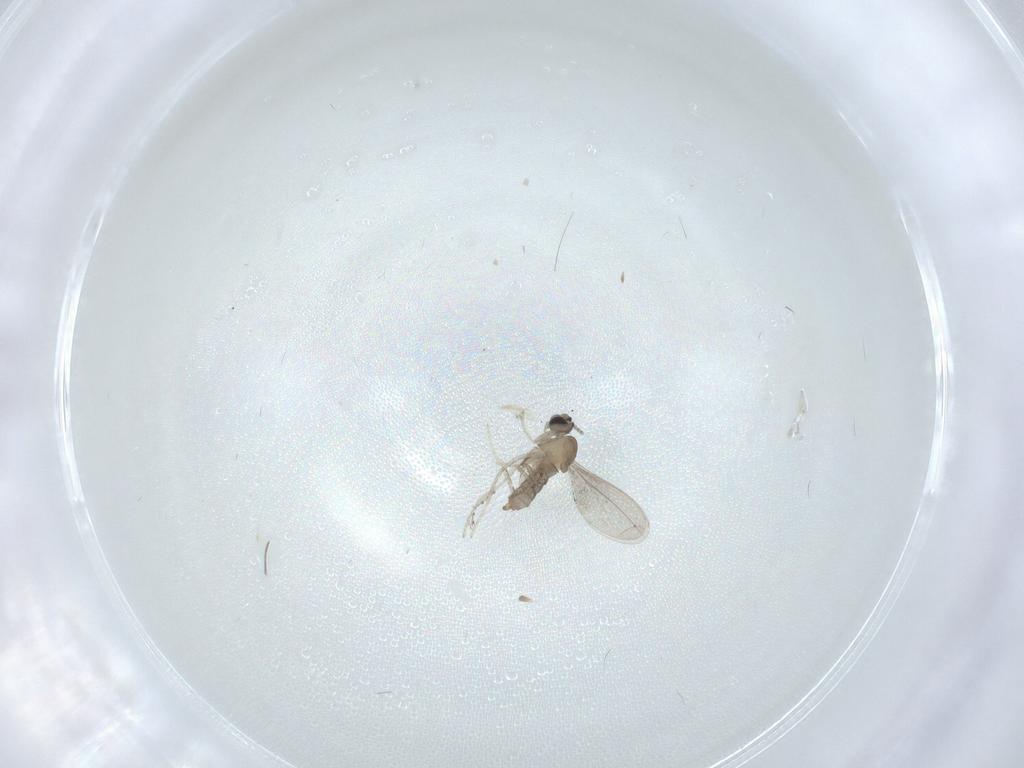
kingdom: Animalia
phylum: Arthropoda
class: Insecta
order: Diptera
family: Cecidomyiidae
